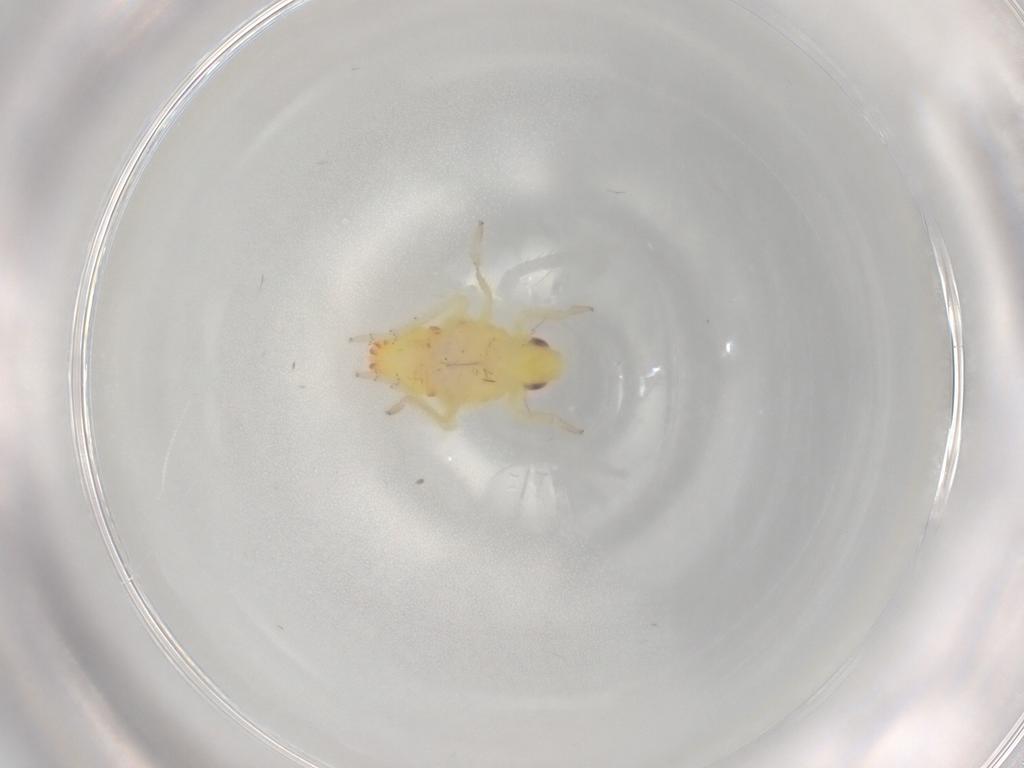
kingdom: Animalia
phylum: Arthropoda
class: Insecta
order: Hemiptera
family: Tropiduchidae
